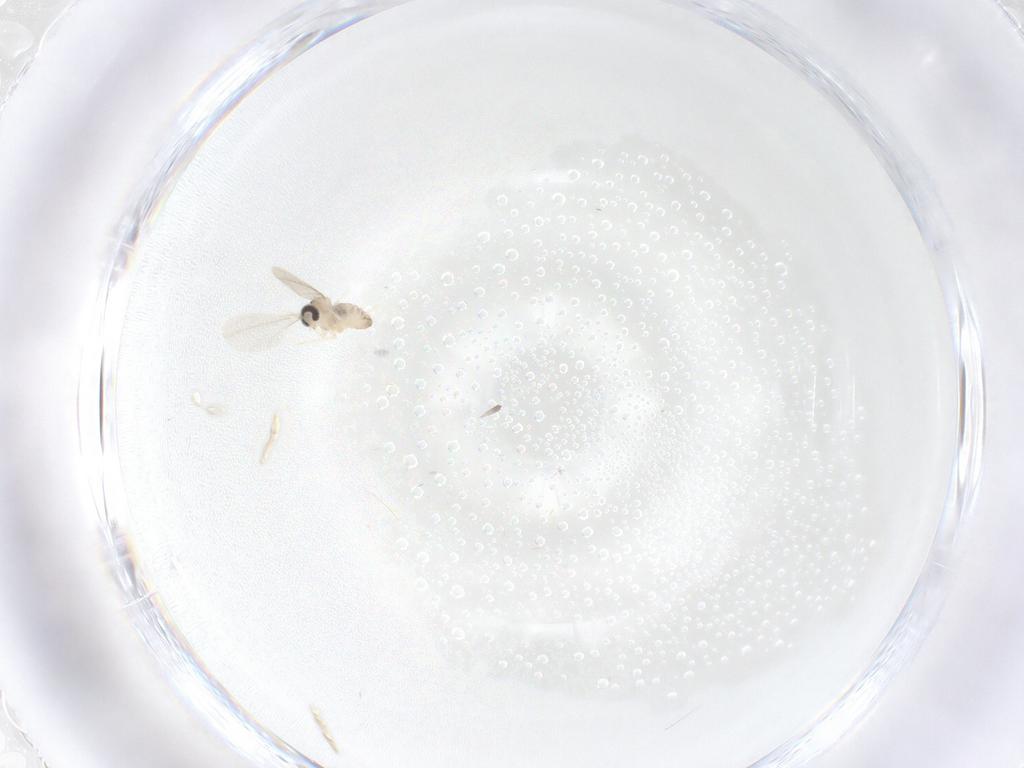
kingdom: Animalia
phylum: Arthropoda
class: Insecta
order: Diptera
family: Cecidomyiidae
